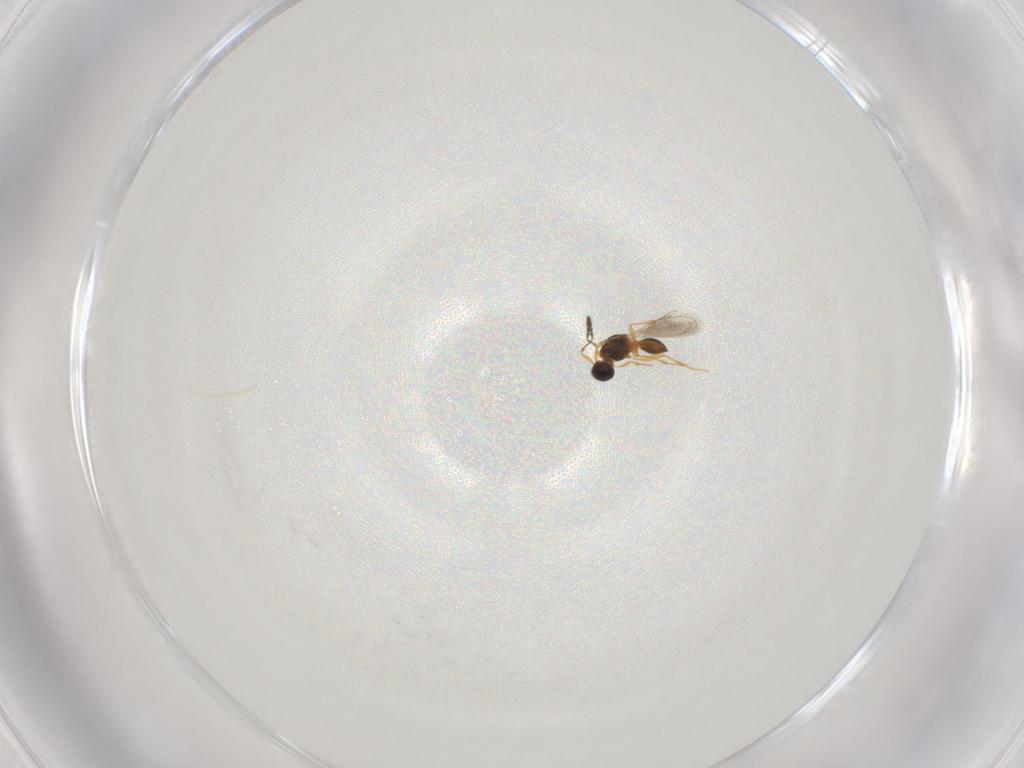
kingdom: Animalia
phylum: Arthropoda
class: Insecta
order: Hymenoptera
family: Platygastridae
